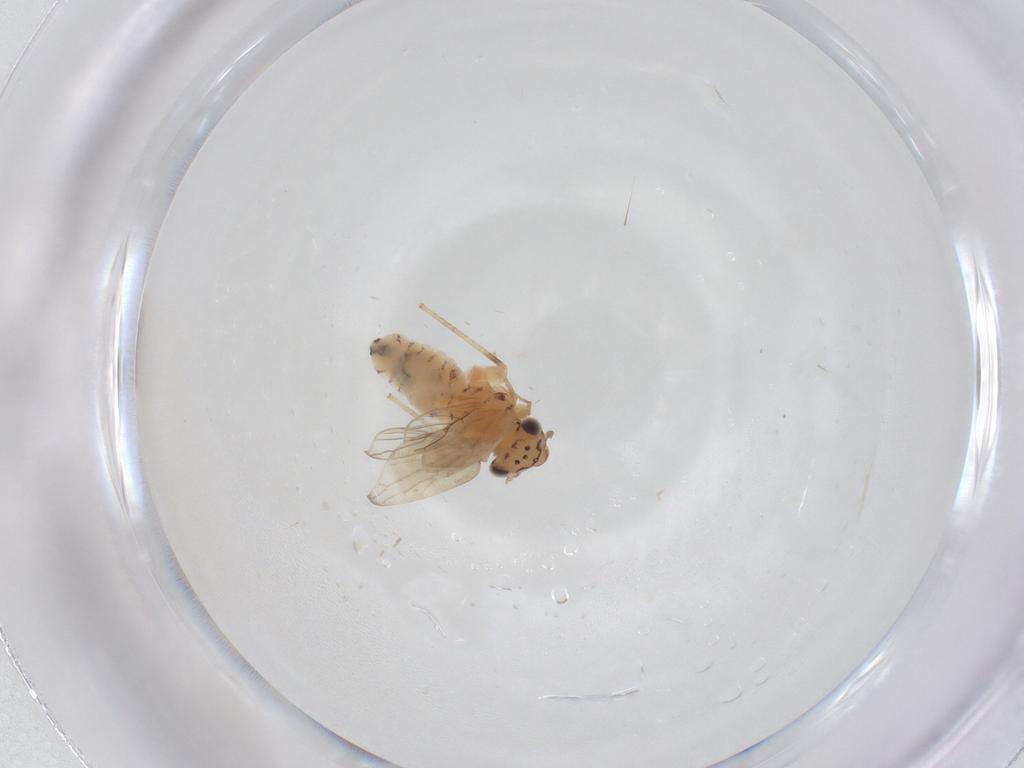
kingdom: Animalia
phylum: Arthropoda
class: Insecta
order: Psocodea
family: Lepidopsocidae
